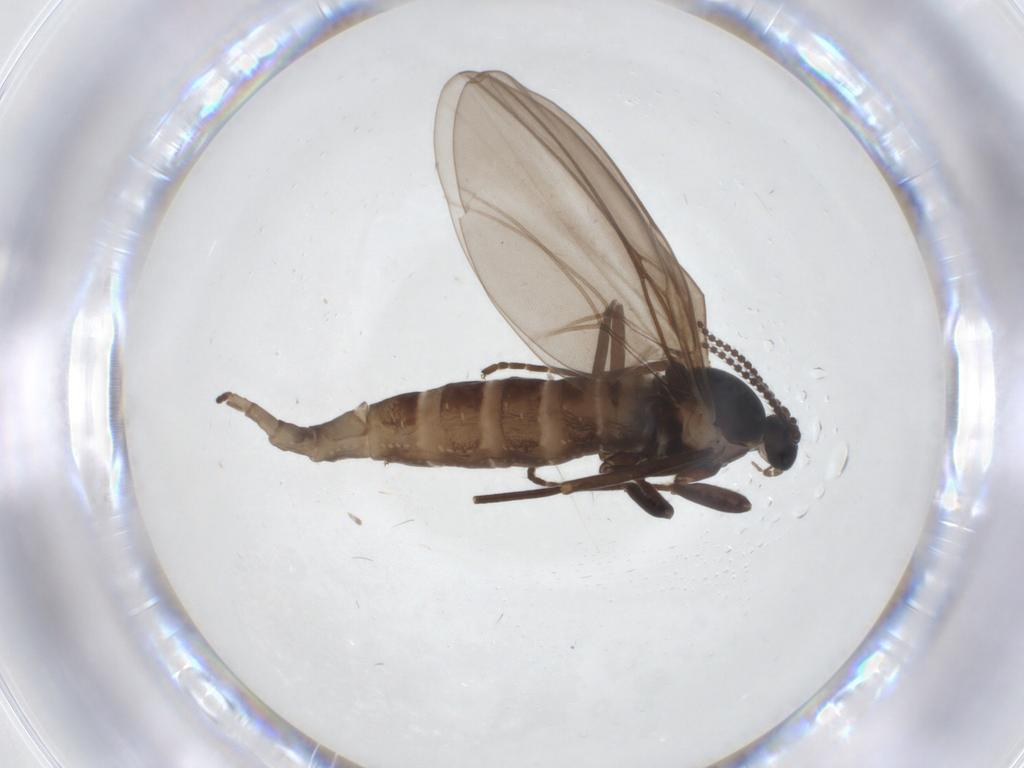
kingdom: Animalia
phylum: Arthropoda
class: Insecta
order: Diptera
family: Cecidomyiidae
